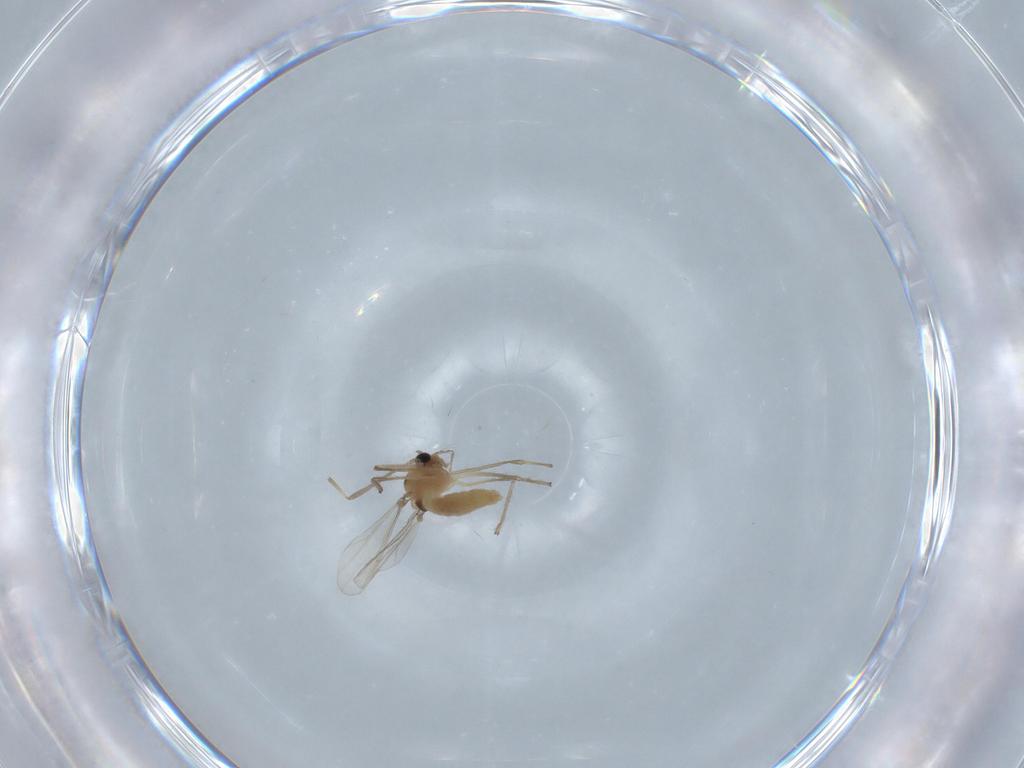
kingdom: Animalia
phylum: Arthropoda
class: Insecta
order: Diptera
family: Chironomidae
